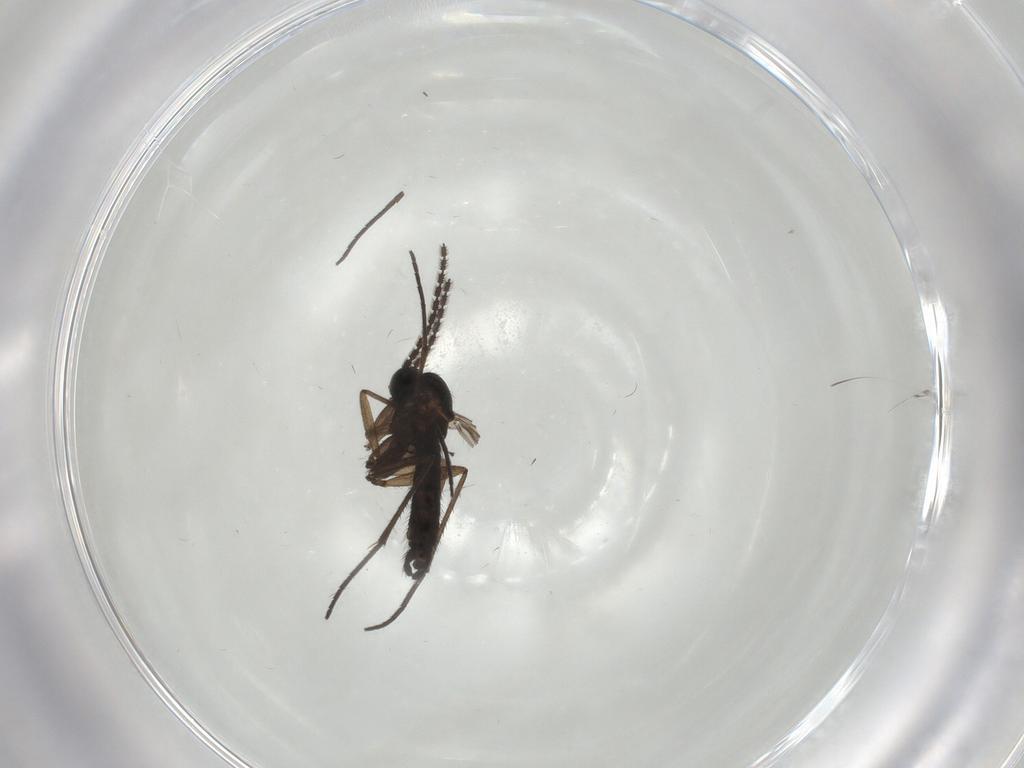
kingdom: Animalia
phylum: Arthropoda
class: Insecta
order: Diptera
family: Sciaridae
